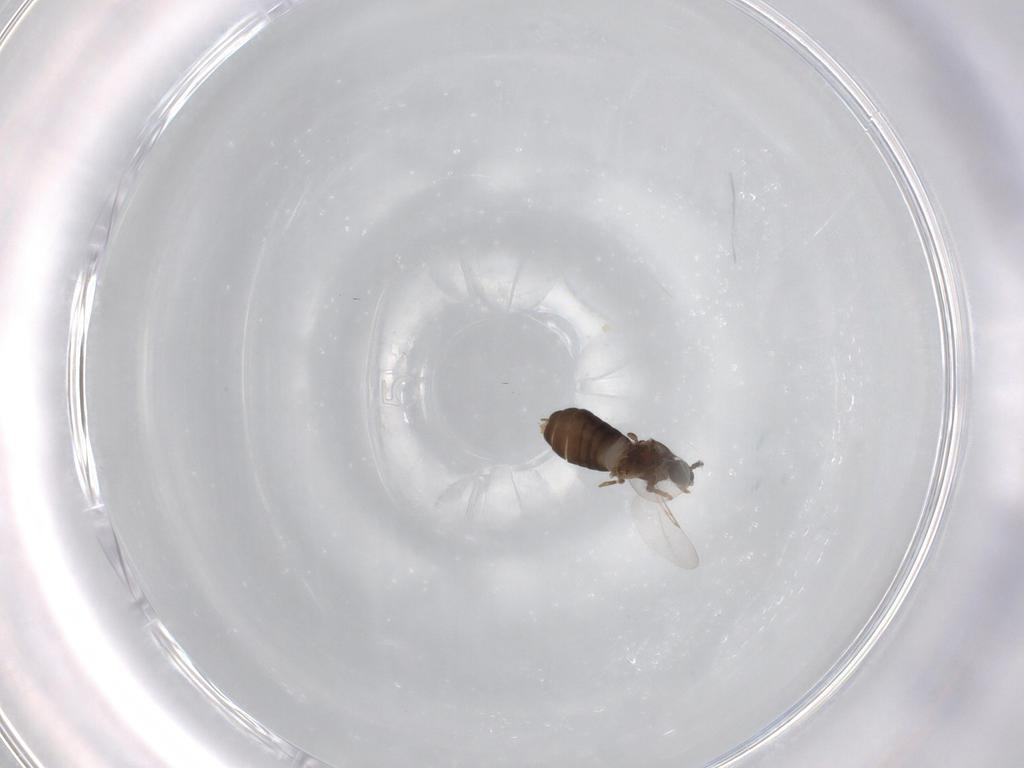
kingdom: Animalia
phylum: Arthropoda
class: Insecta
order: Diptera
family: Scatopsidae
